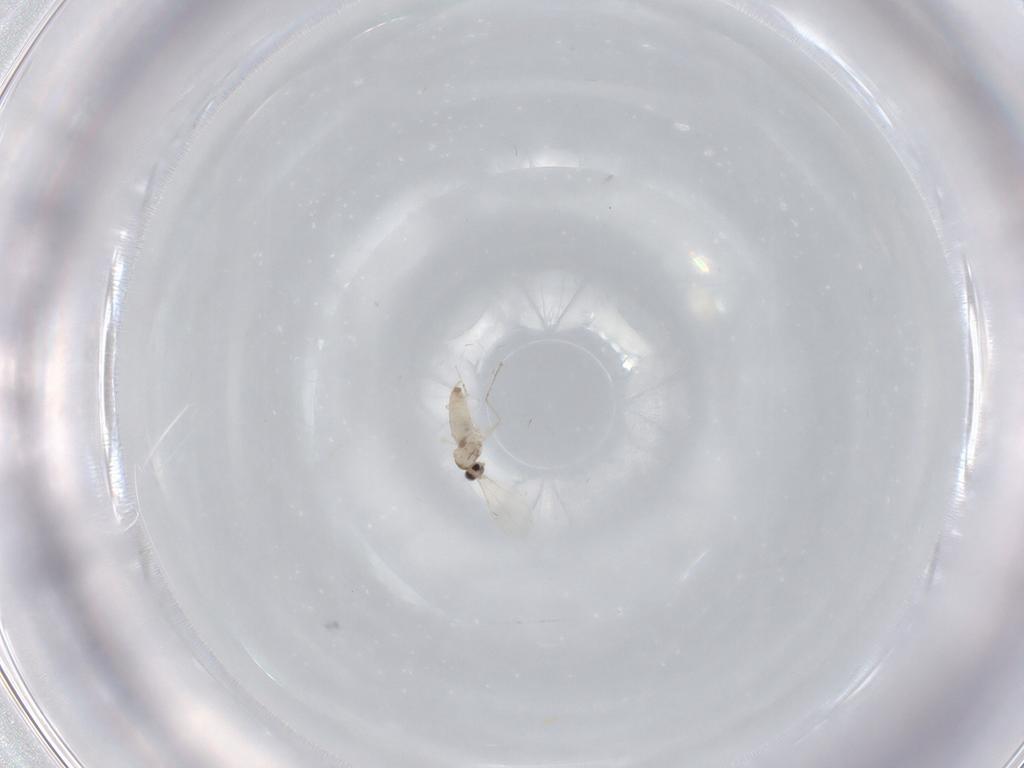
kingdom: Animalia
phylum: Arthropoda
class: Insecta
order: Diptera
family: Cecidomyiidae
